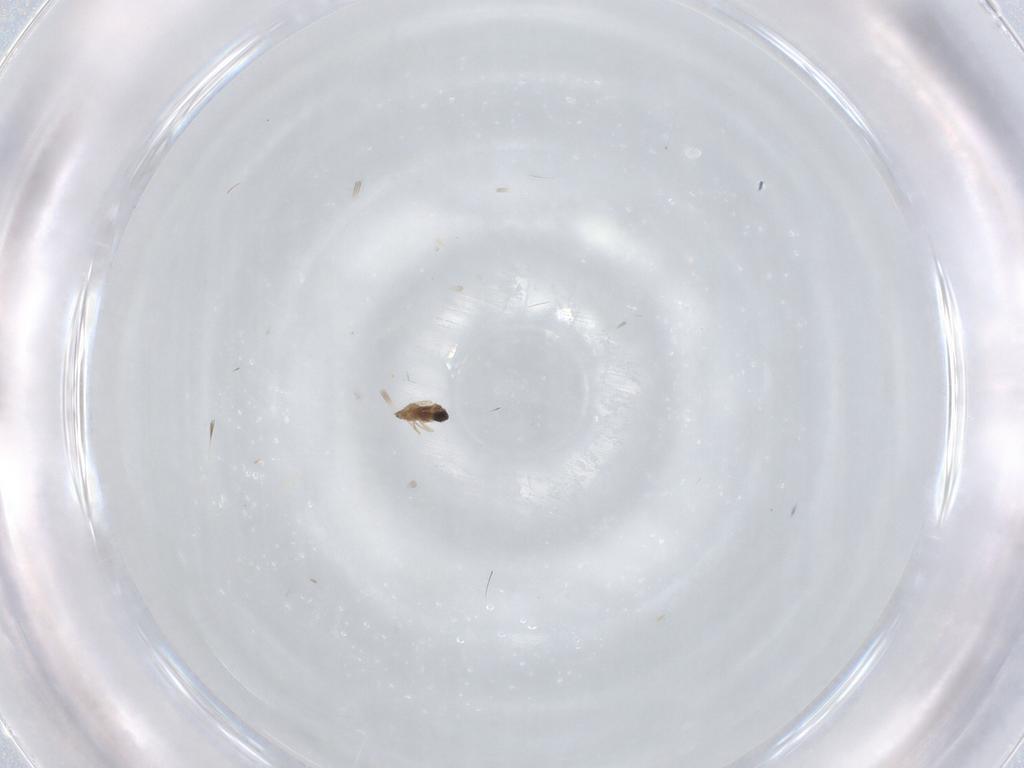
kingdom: Animalia
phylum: Arthropoda
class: Insecta
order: Diptera
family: Cecidomyiidae
